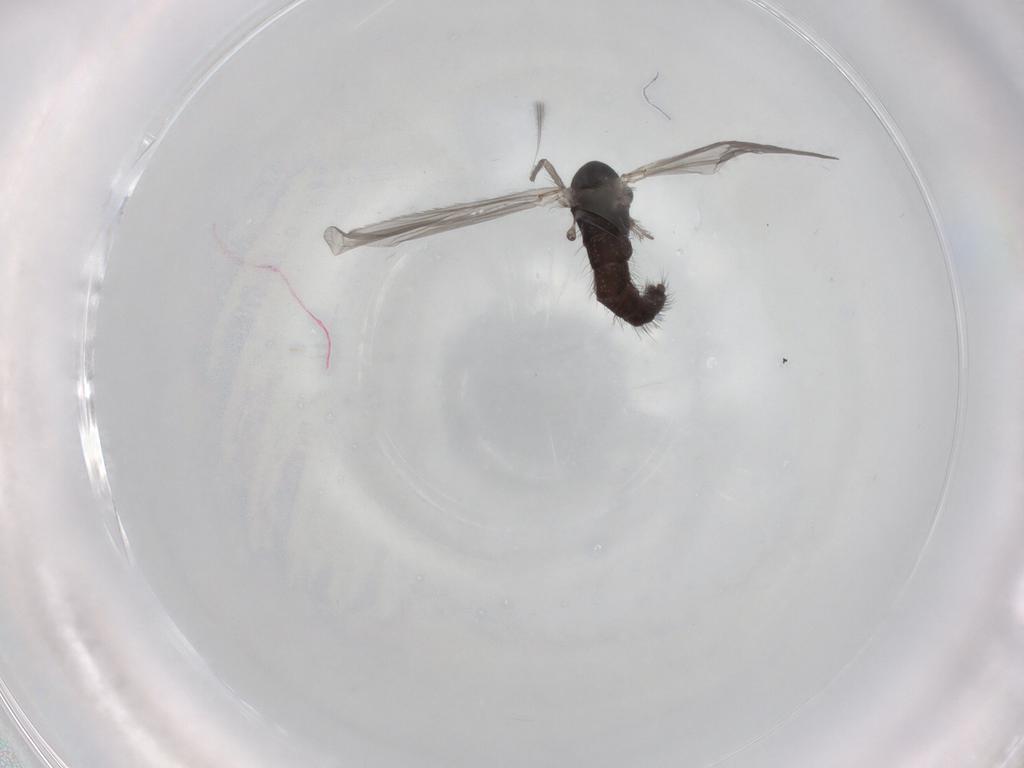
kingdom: Animalia
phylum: Arthropoda
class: Insecta
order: Diptera
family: Chironomidae
